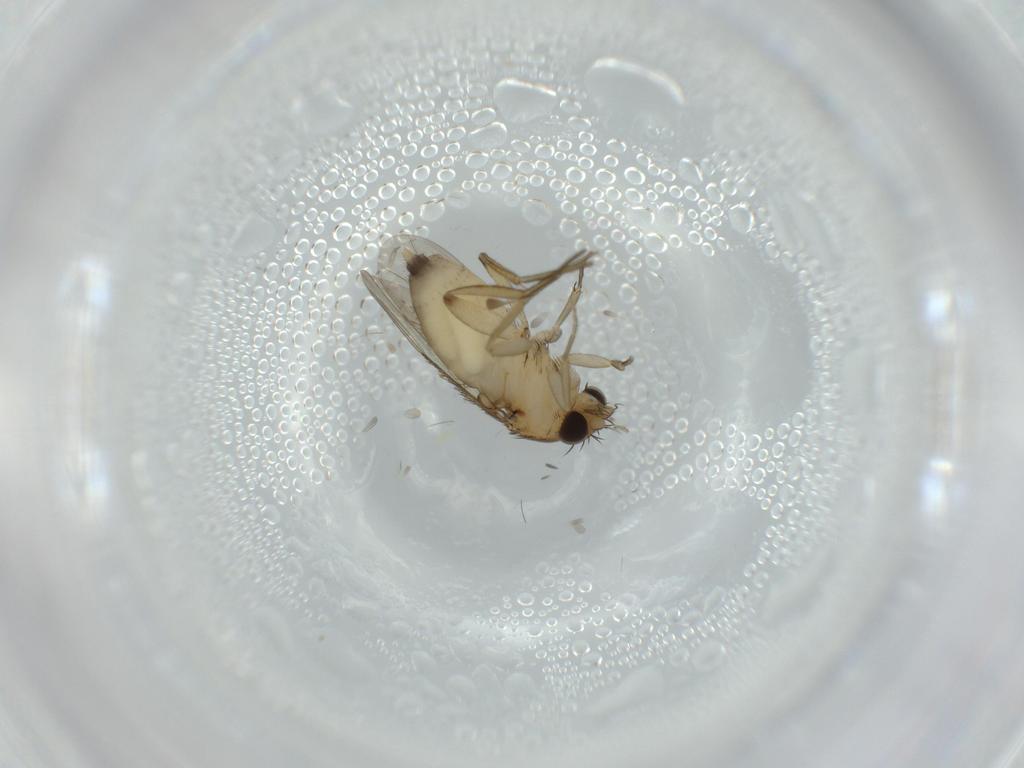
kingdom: Animalia
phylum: Arthropoda
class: Insecta
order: Diptera
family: Phoridae
